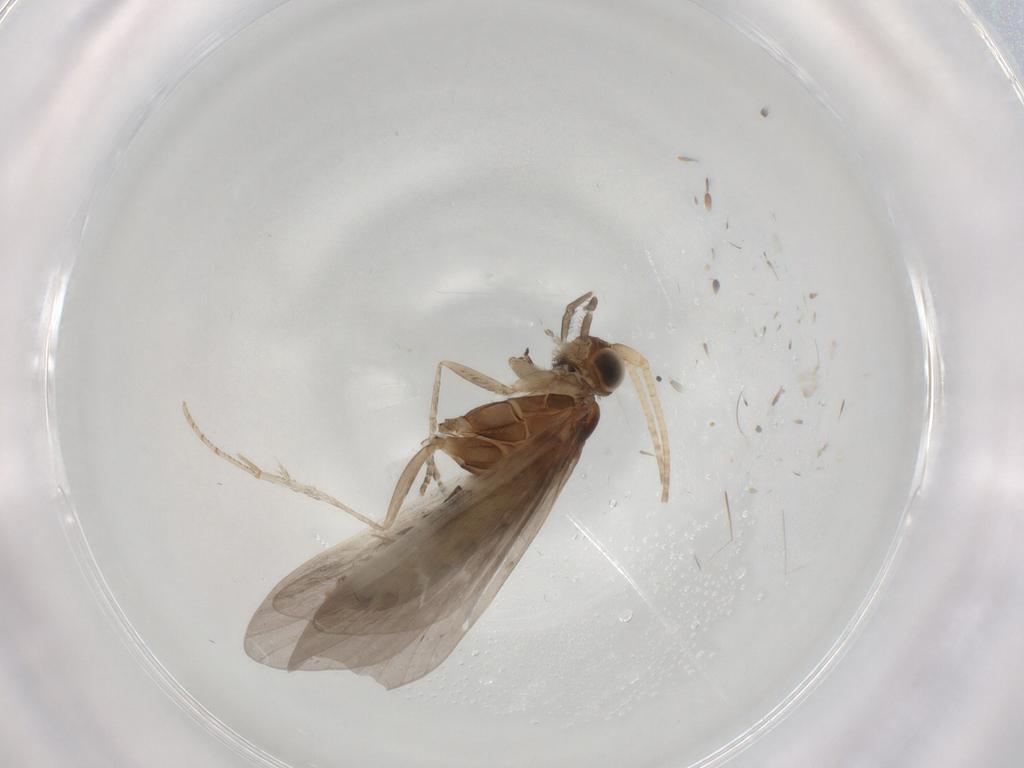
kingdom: Animalia
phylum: Arthropoda
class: Insecta
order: Trichoptera
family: Helicopsychidae
